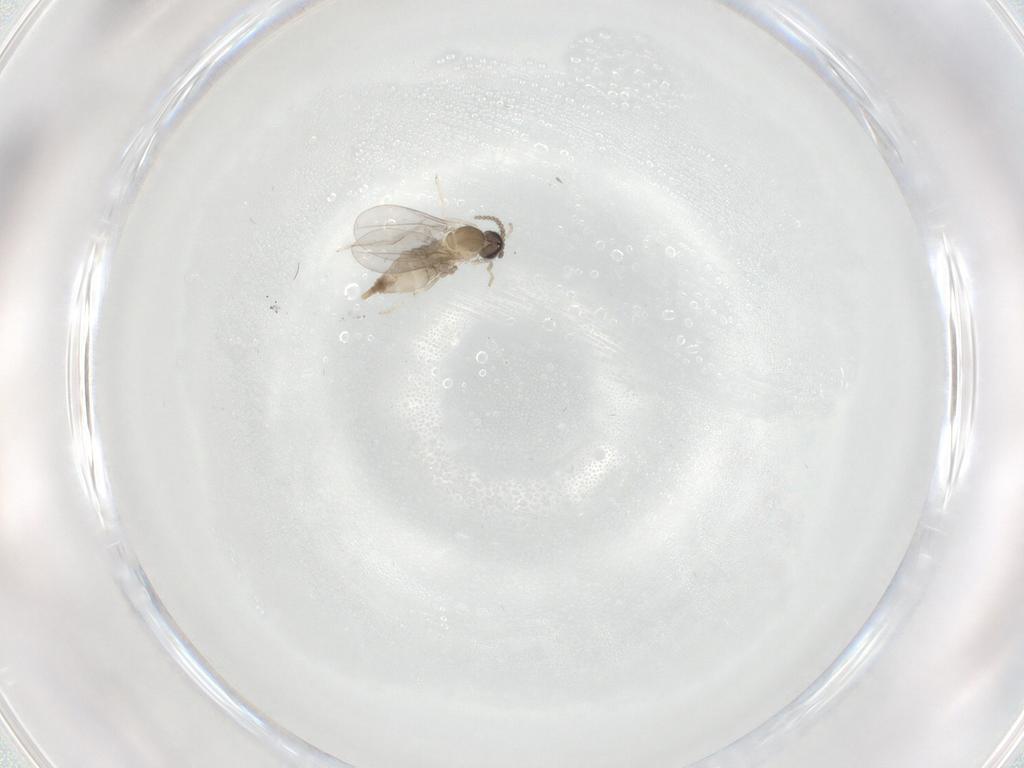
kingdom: Animalia
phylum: Arthropoda
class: Insecta
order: Diptera
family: Cecidomyiidae
